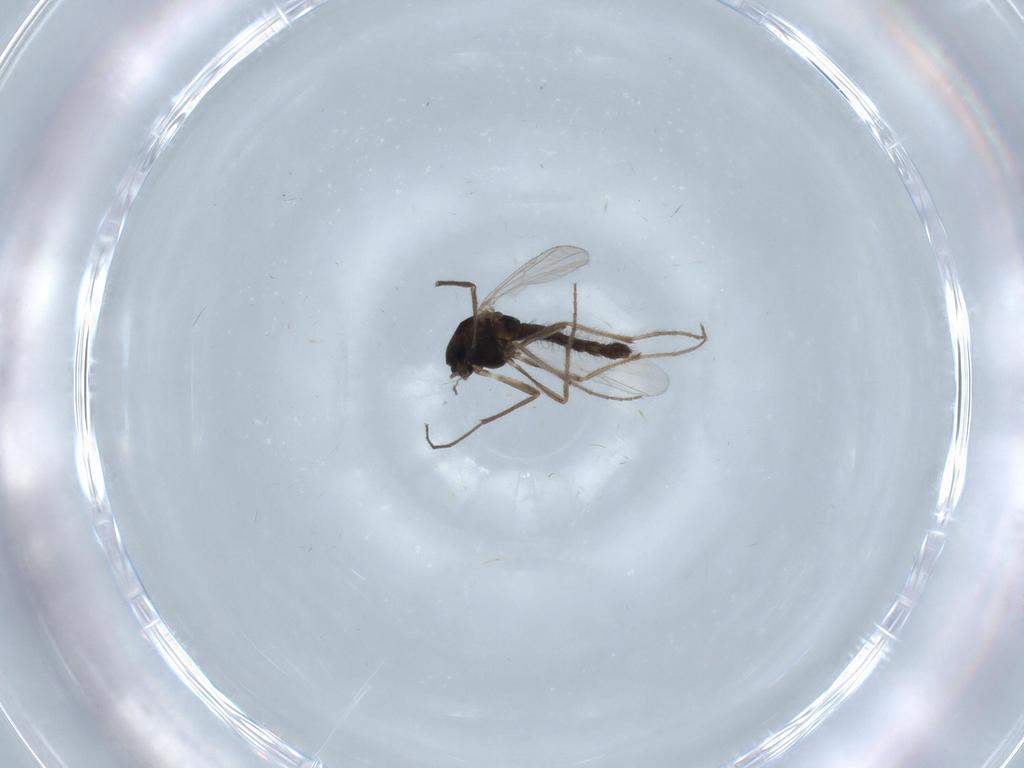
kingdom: Animalia
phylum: Arthropoda
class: Insecta
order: Diptera
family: Chironomidae
